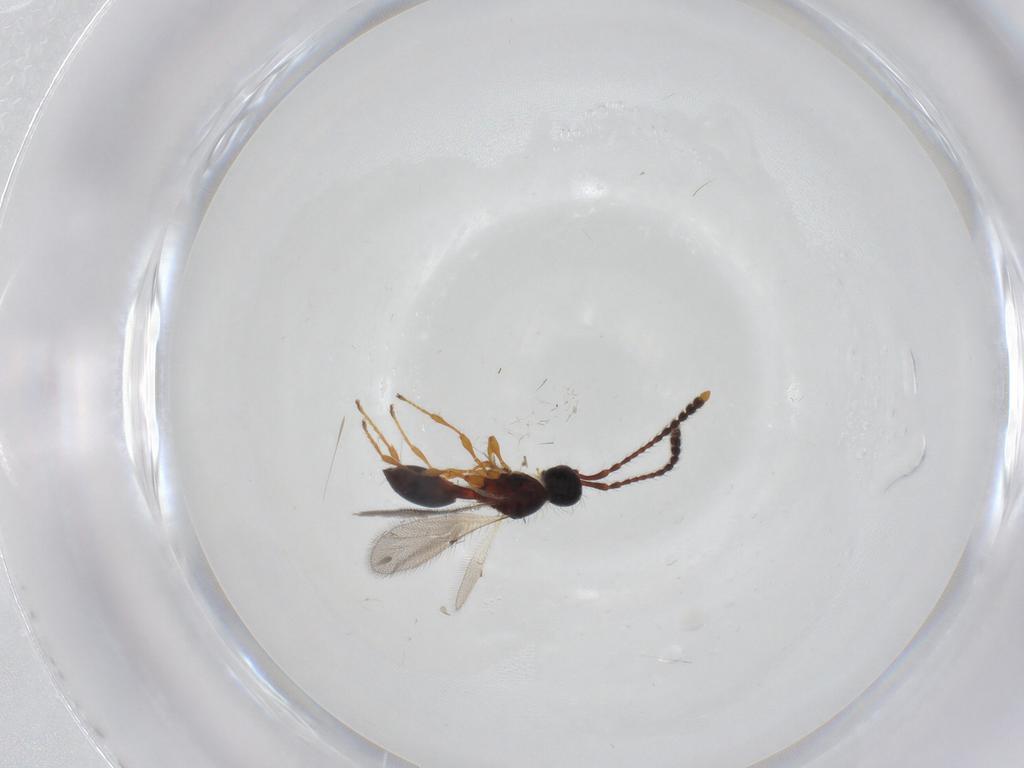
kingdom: Animalia
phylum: Arthropoda
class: Insecta
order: Hymenoptera
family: Diapriidae
